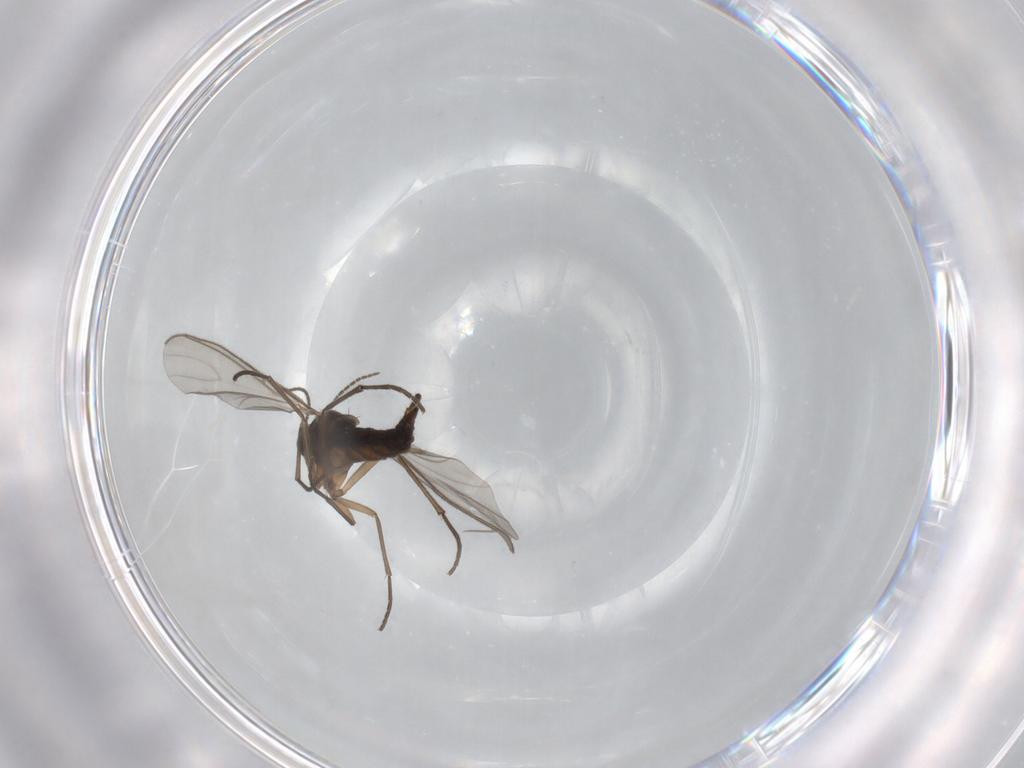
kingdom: Animalia
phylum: Arthropoda
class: Insecta
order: Diptera
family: Sciaridae
